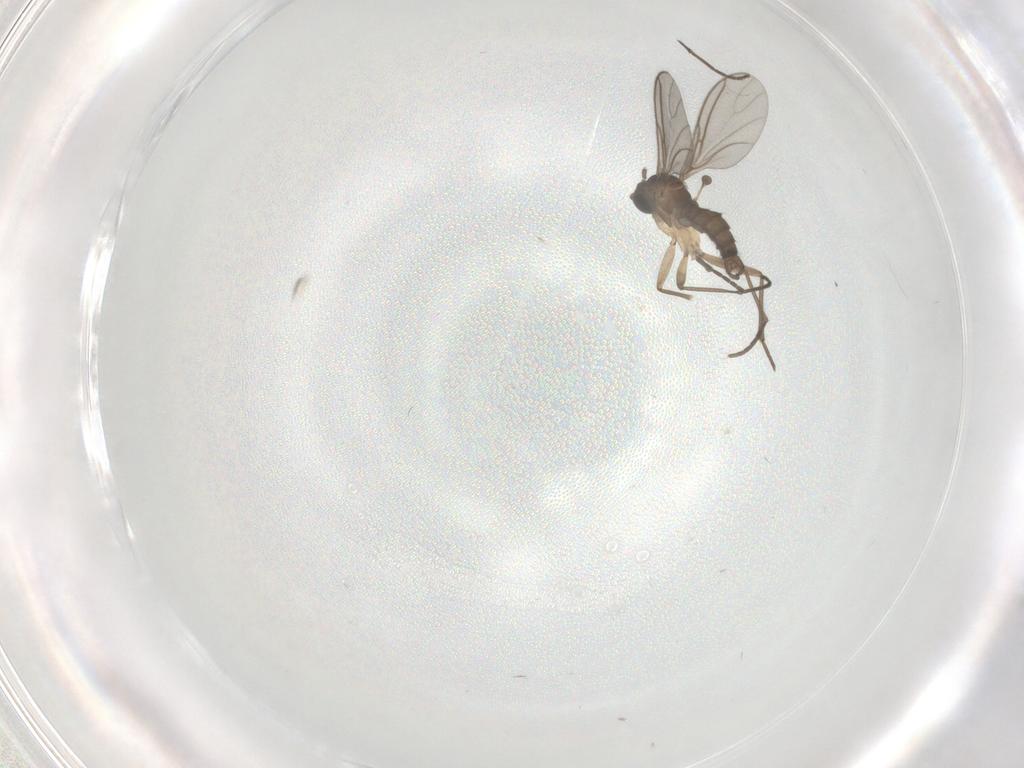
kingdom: Animalia
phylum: Arthropoda
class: Insecta
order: Diptera
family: Sciaridae
